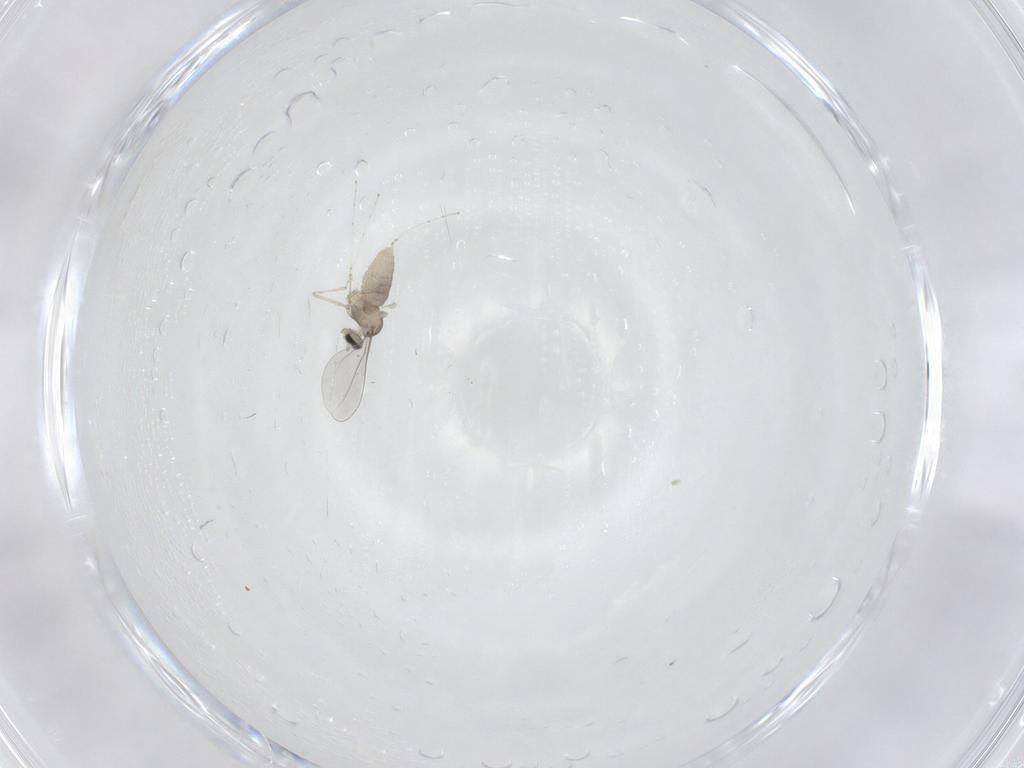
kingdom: Animalia
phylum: Arthropoda
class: Insecta
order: Diptera
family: Cecidomyiidae
